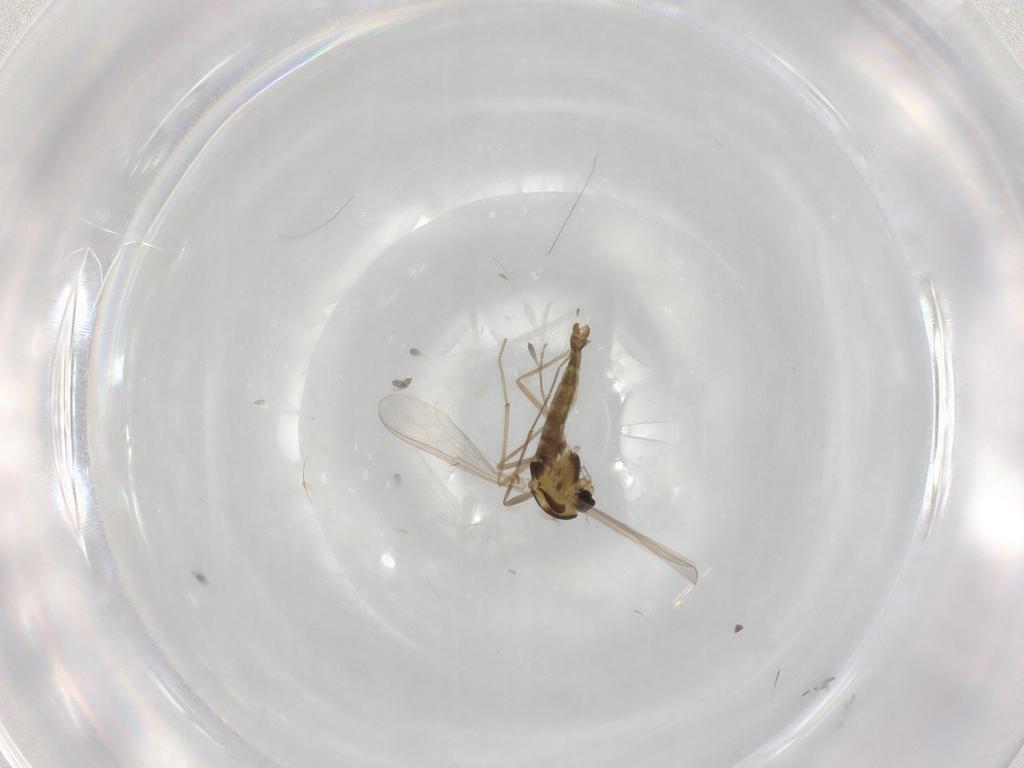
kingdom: Animalia
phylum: Arthropoda
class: Insecta
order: Diptera
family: Chironomidae
